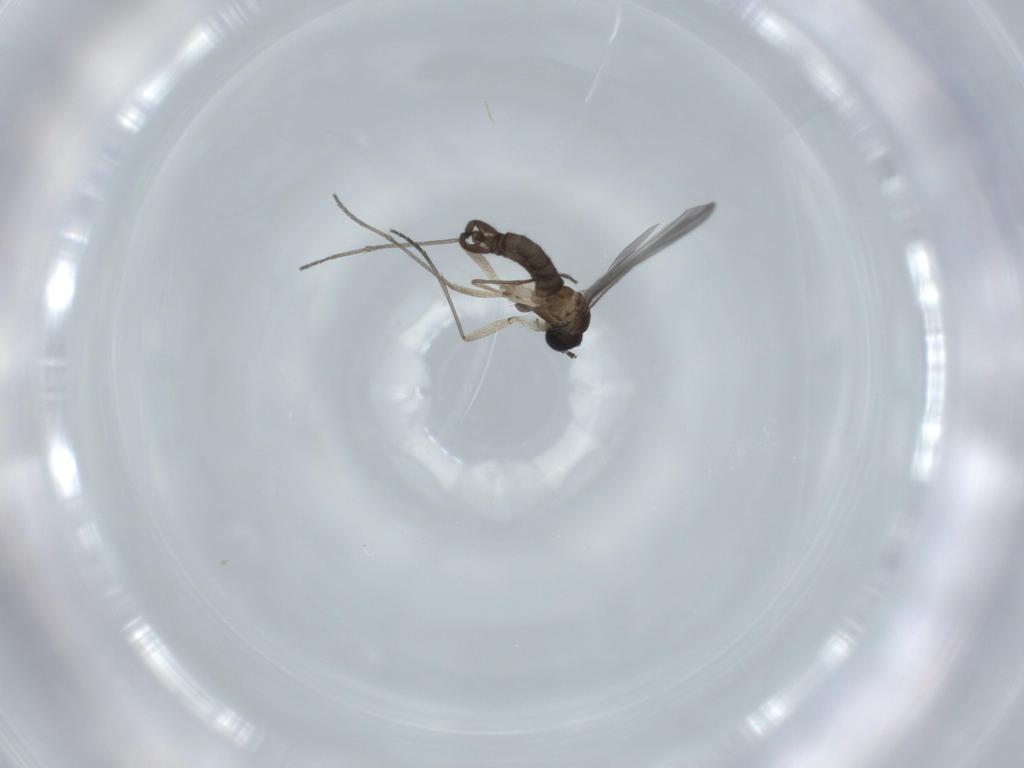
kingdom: Animalia
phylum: Arthropoda
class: Insecta
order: Diptera
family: Sciaridae
